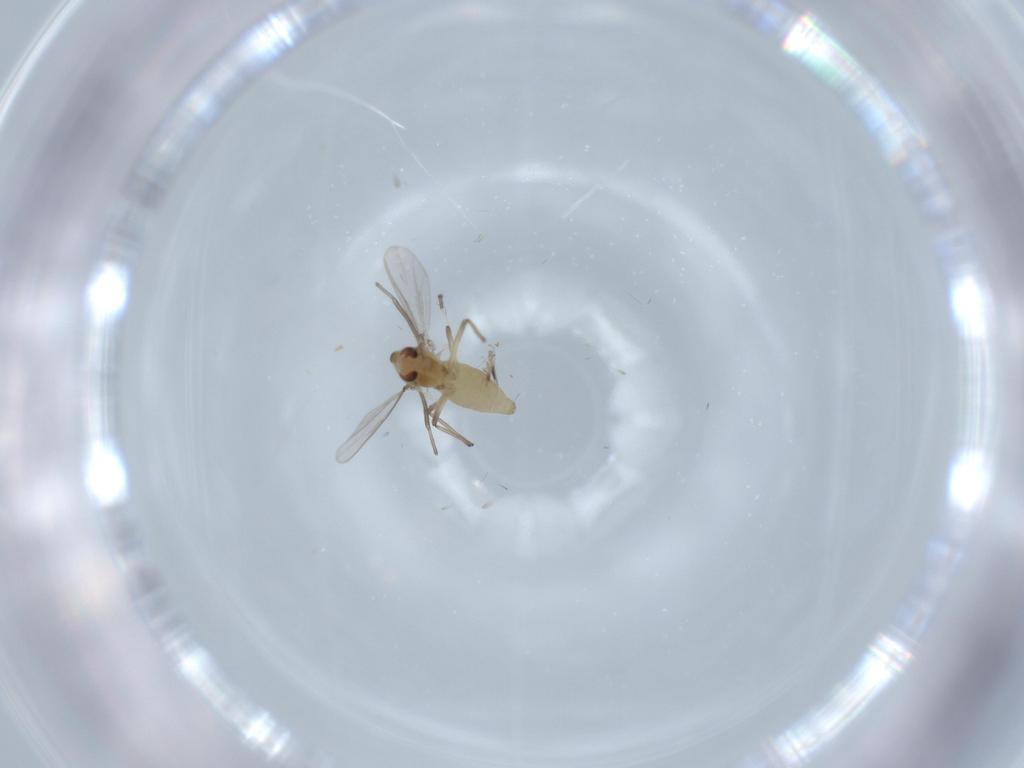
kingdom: Animalia
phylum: Arthropoda
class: Insecta
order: Diptera
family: Chironomidae
